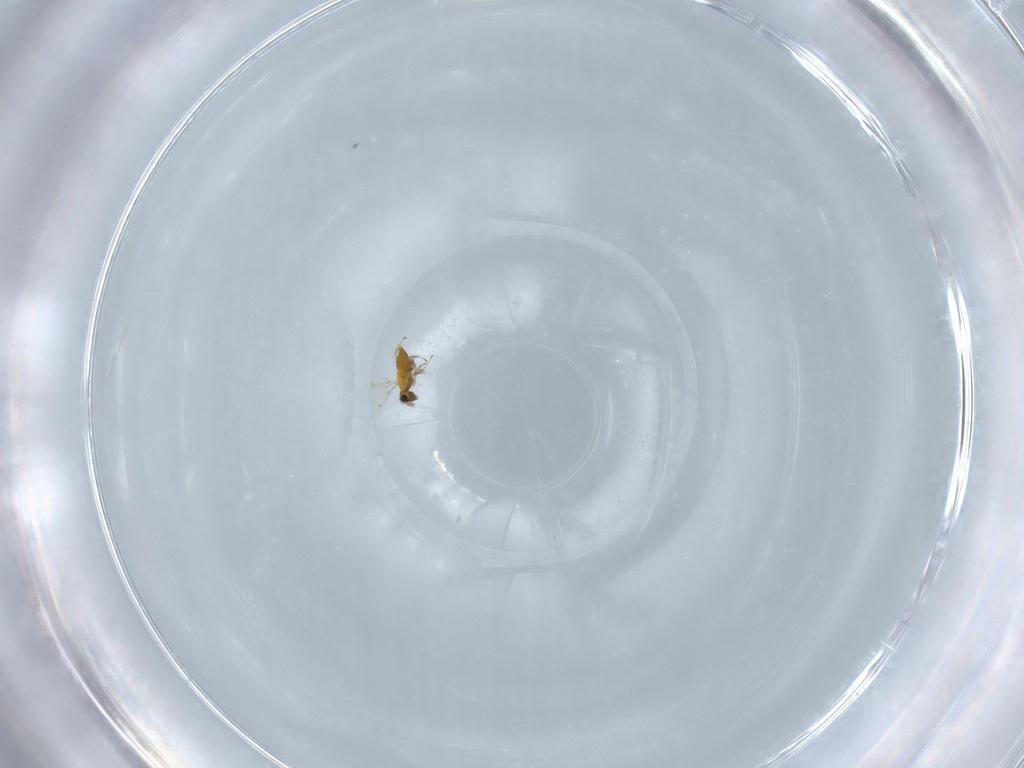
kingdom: Animalia
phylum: Arthropoda
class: Insecta
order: Hymenoptera
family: Trichogrammatidae
